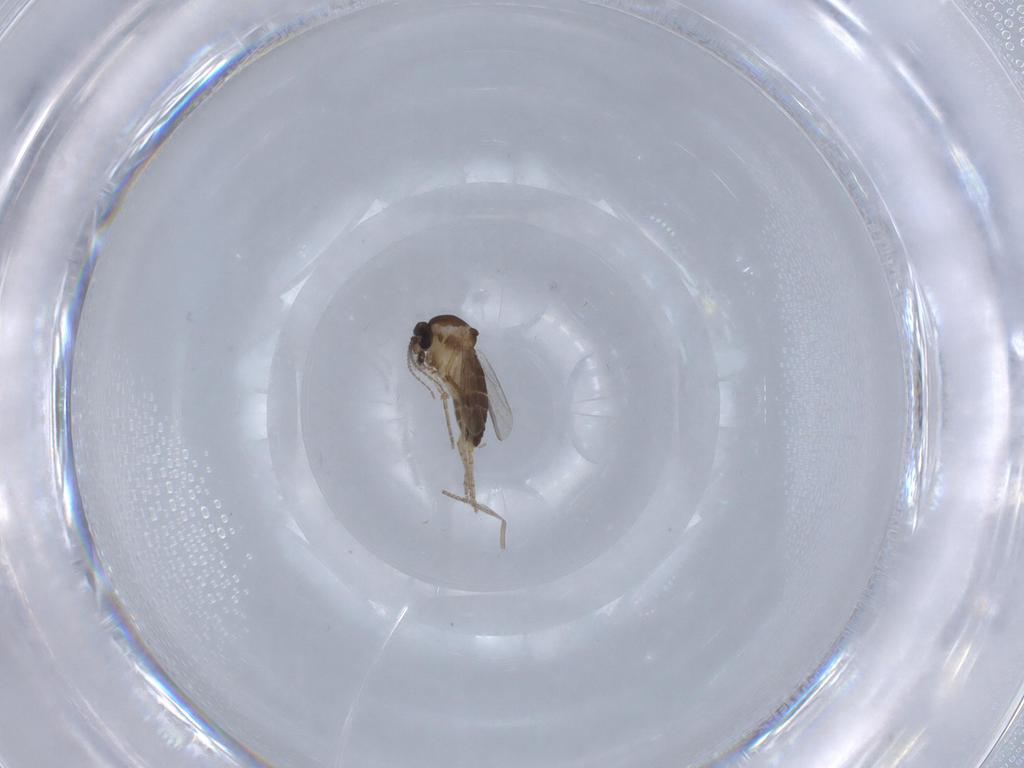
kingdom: Animalia
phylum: Arthropoda
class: Insecta
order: Diptera
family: Ceratopogonidae
